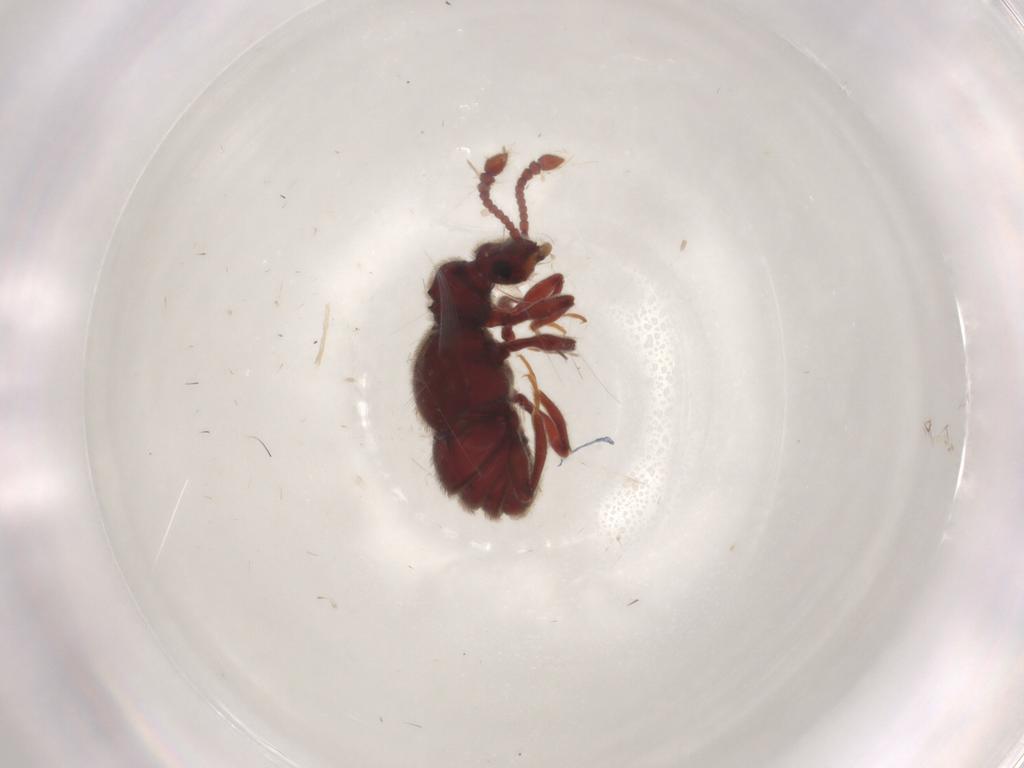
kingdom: Animalia
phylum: Arthropoda
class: Insecta
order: Coleoptera
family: Staphylinidae
